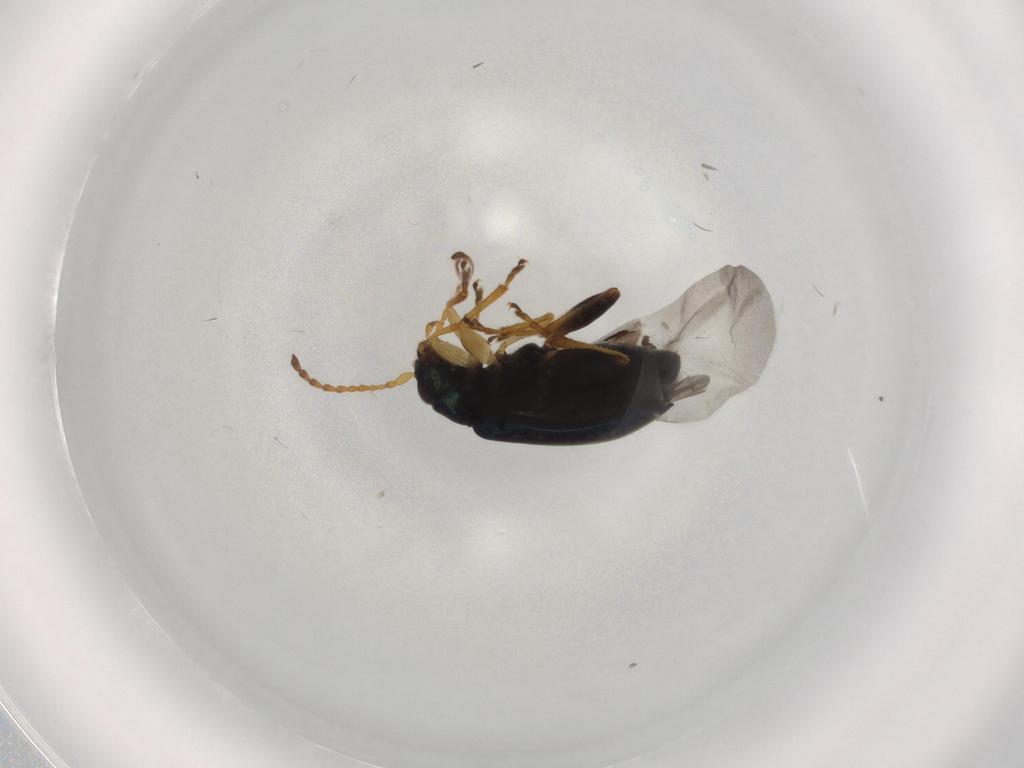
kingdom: Animalia
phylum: Arthropoda
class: Insecta
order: Coleoptera
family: Chrysomelidae
